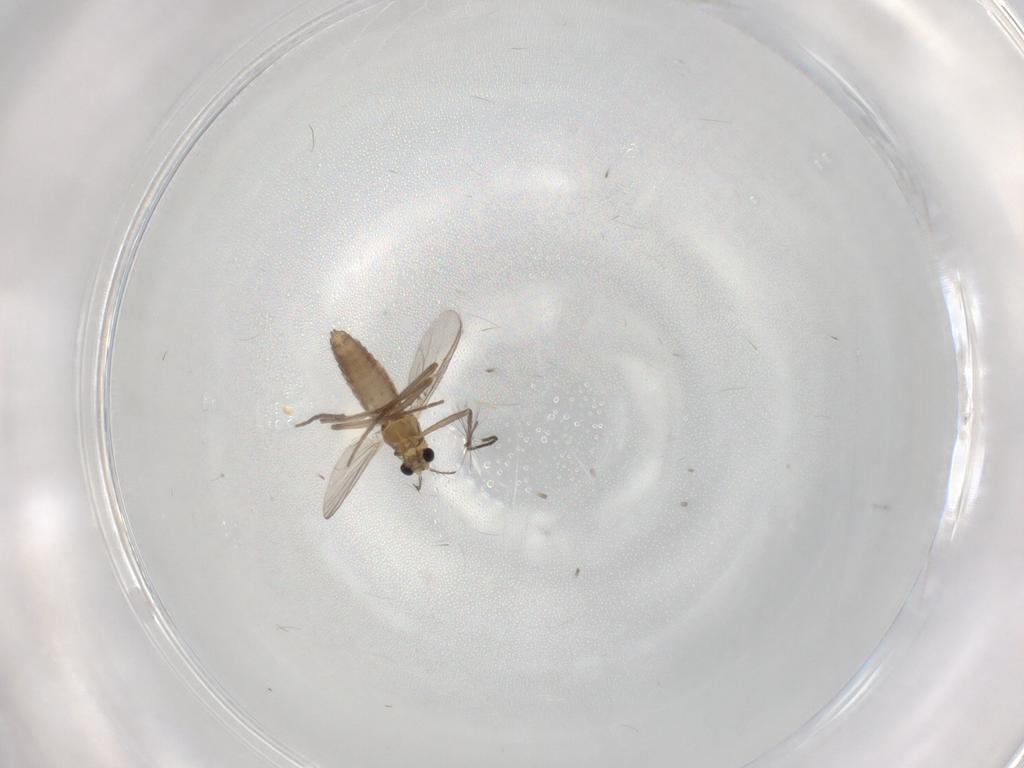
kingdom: Animalia
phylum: Arthropoda
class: Insecta
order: Diptera
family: Chironomidae
